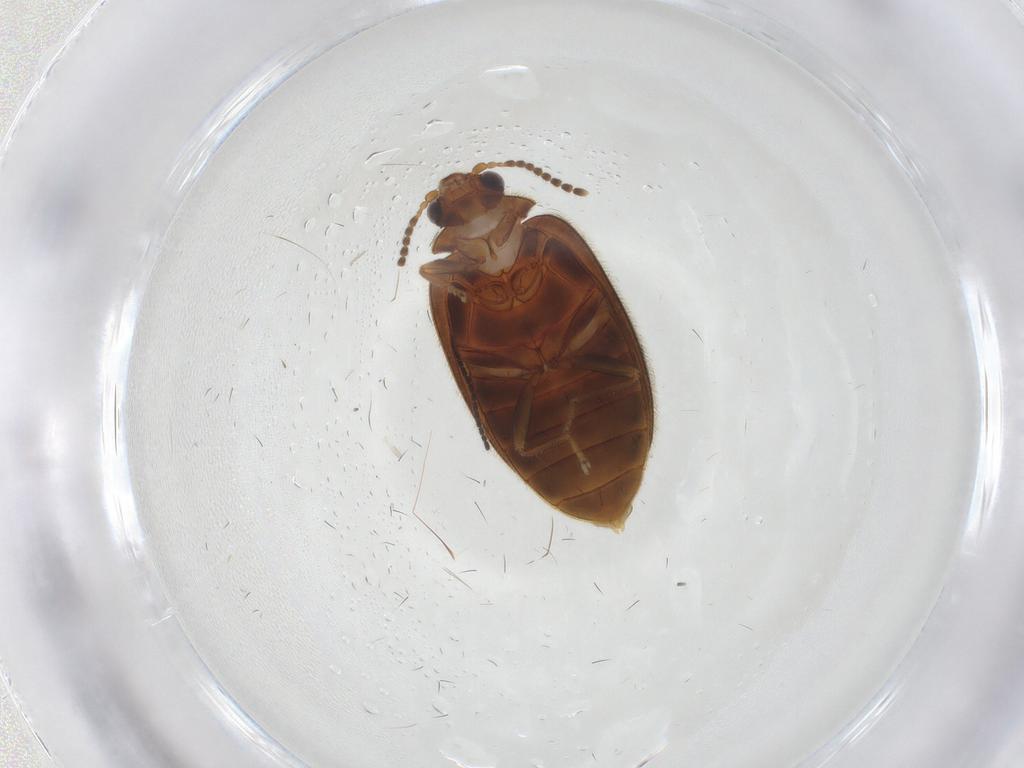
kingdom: Animalia
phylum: Arthropoda
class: Insecta
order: Coleoptera
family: Scirtidae
